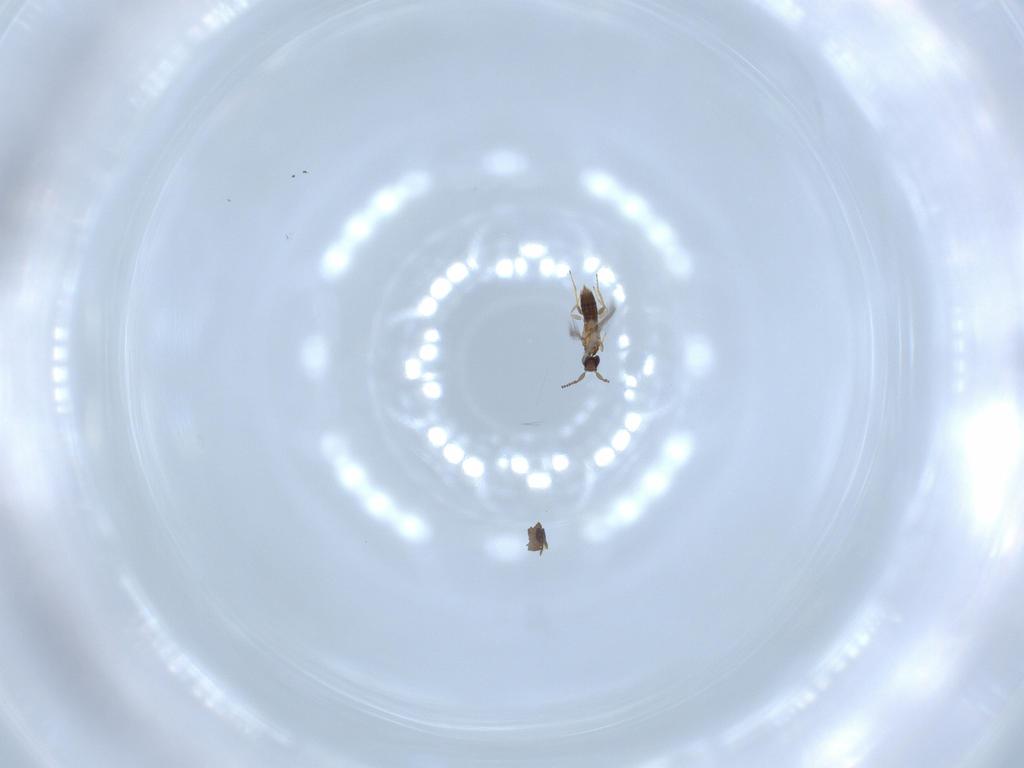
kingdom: Animalia
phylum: Arthropoda
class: Insecta
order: Hymenoptera
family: Mymaridae
